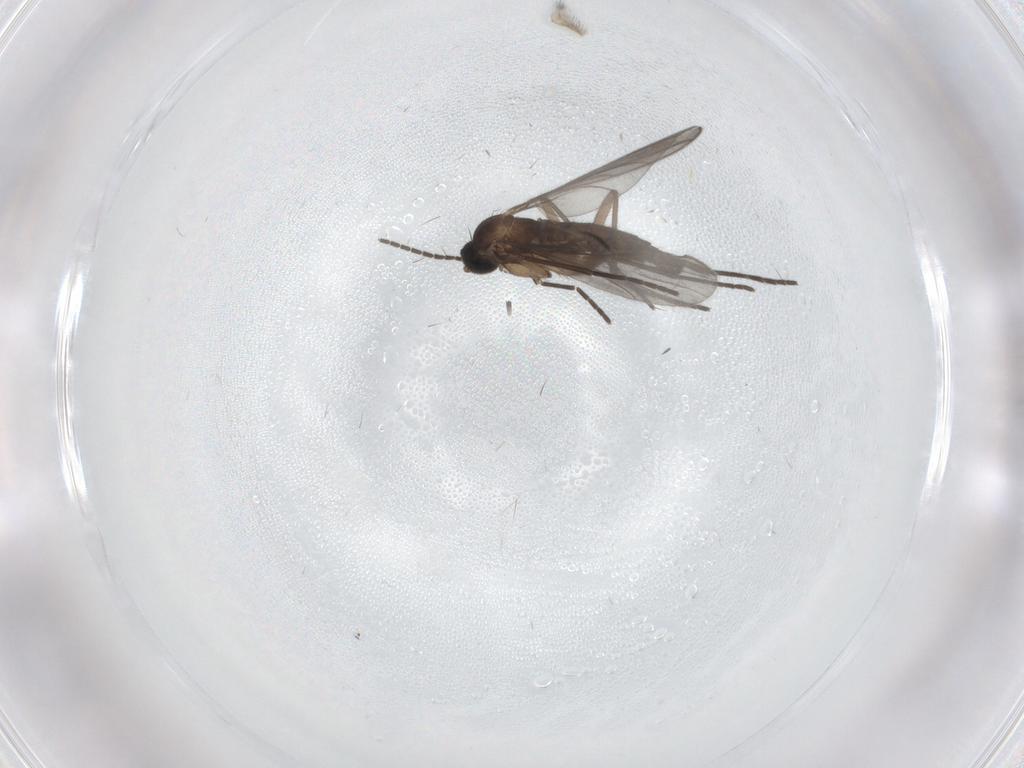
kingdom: Animalia
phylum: Arthropoda
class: Insecta
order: Diptera
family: Sciaridae
